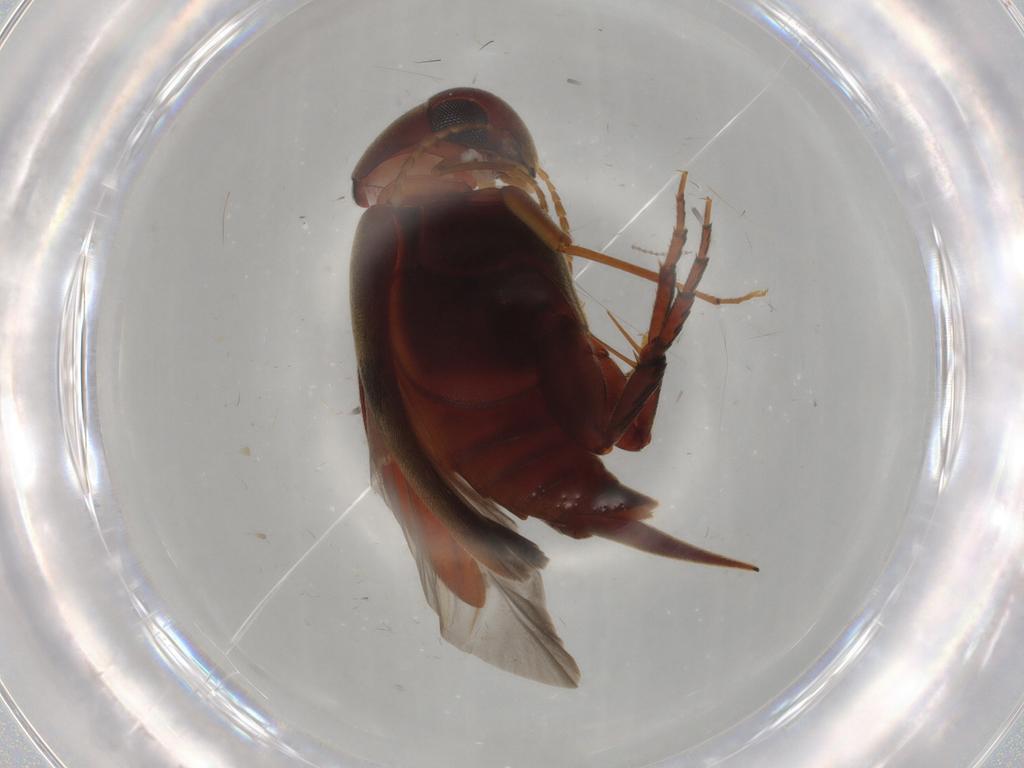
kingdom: Animalia
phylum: Arthropoda
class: Insecta
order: Coleoptera
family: Mordellidae
